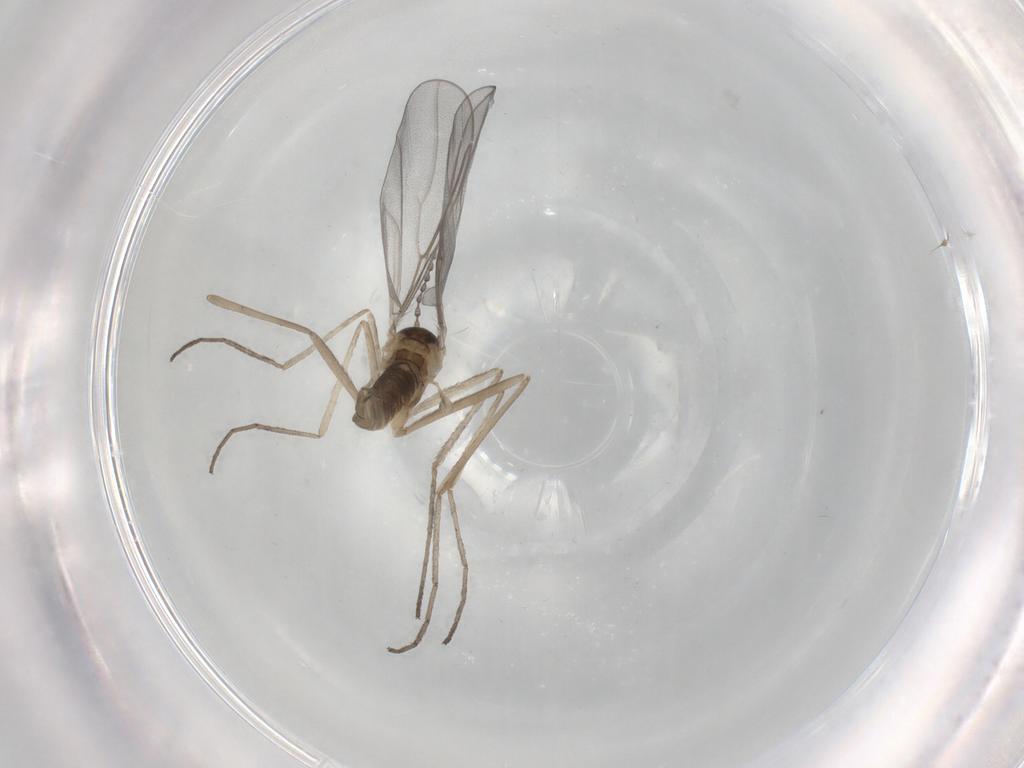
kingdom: Animalia
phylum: Arthropoda
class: Insecta
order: Diptera
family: Cecidomyiidae
